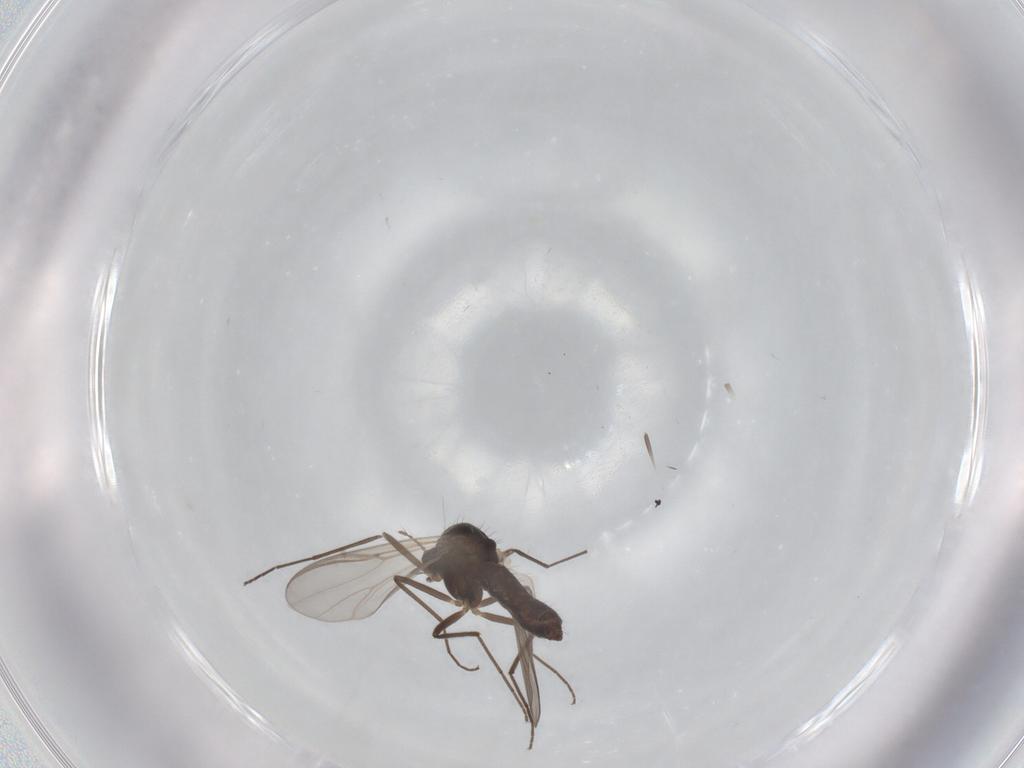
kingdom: Animalia
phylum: Arthropoda
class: Insecta
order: Diptera
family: Chironomidae
